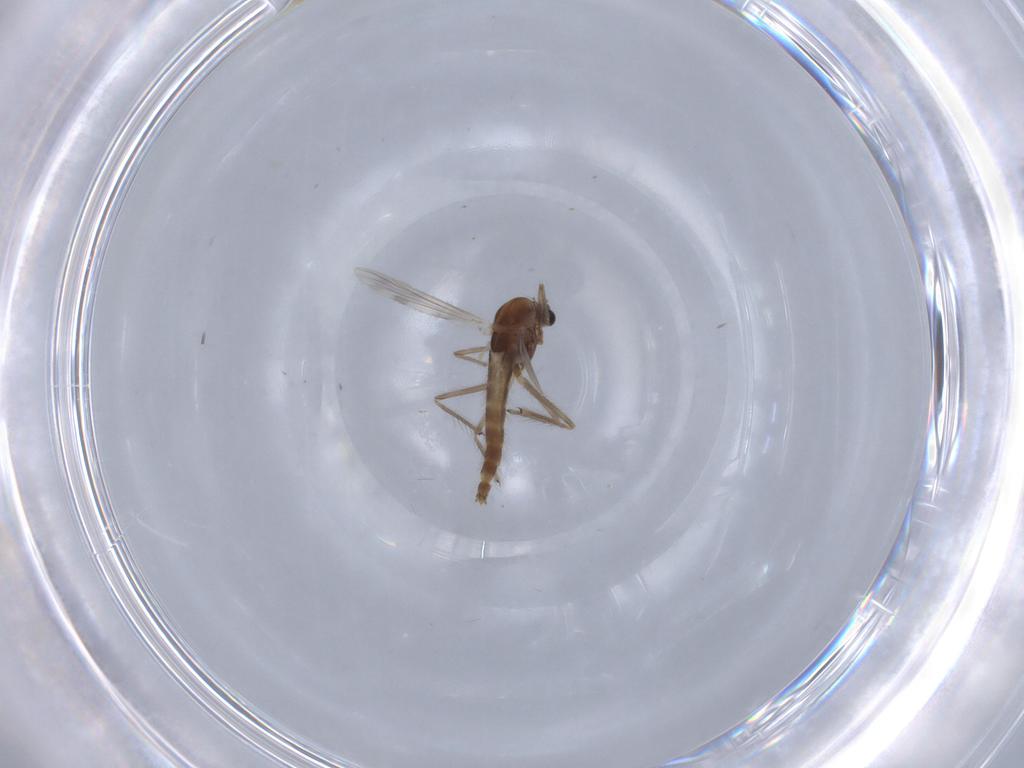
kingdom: Animalia
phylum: Arthropoda
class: Insecta
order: Diptera
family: Chironomidae
